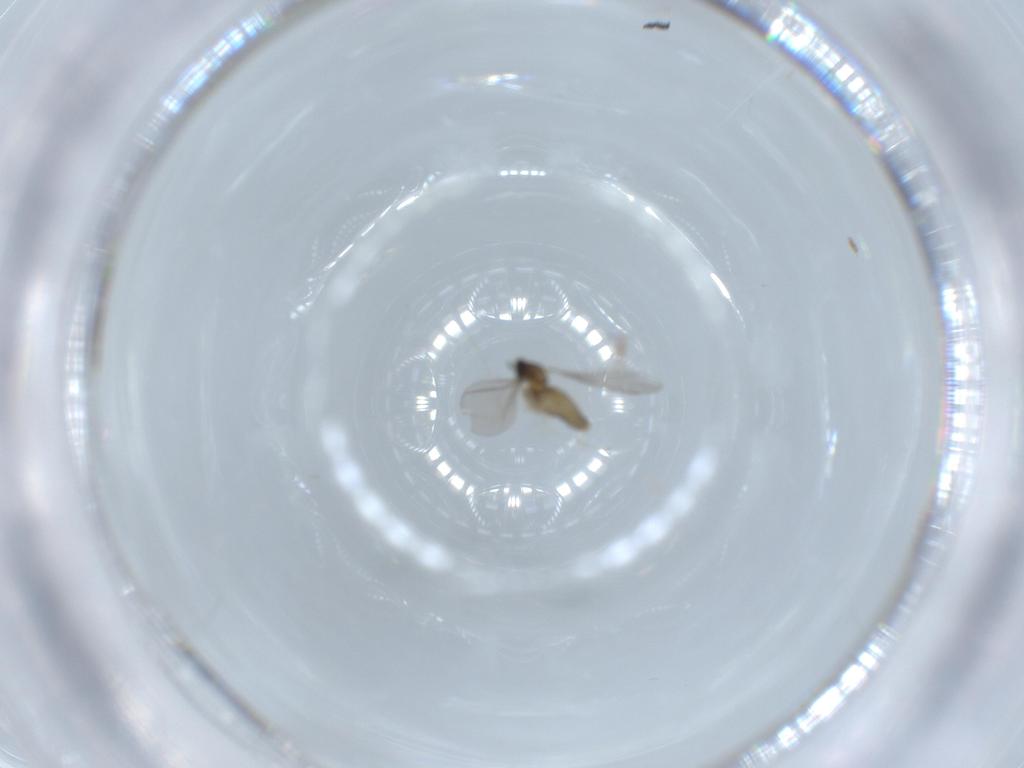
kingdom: Animalia
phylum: Arthropoda
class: Insecta
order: Diptera
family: Cecidomyiidae
